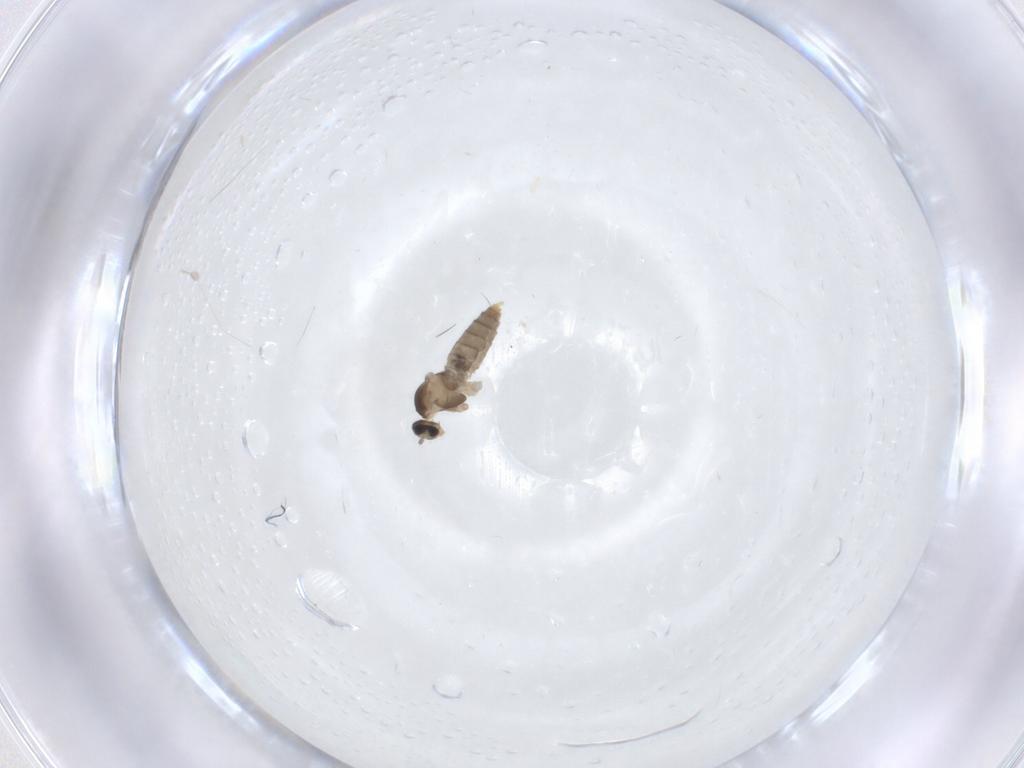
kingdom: Animalia
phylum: Arthropoda
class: Insecta
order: Diptera
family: Cecidomyiidae
